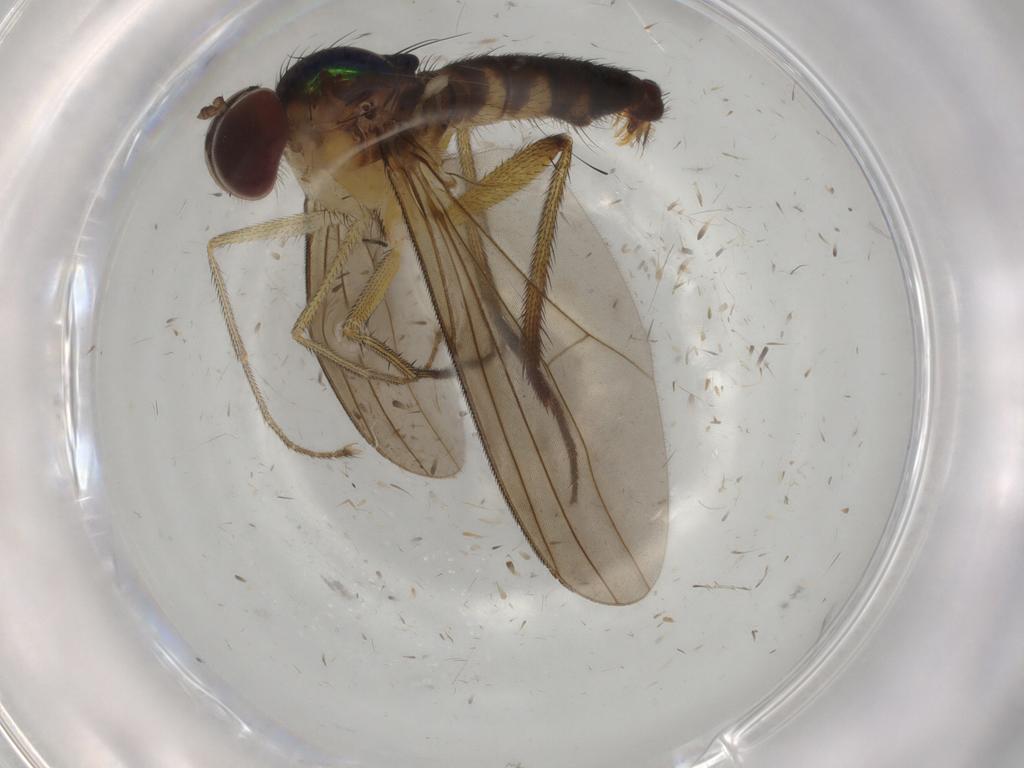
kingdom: Animalia
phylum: Arthropoda
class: Insecta
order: Diptera
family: Dolichopodidae
